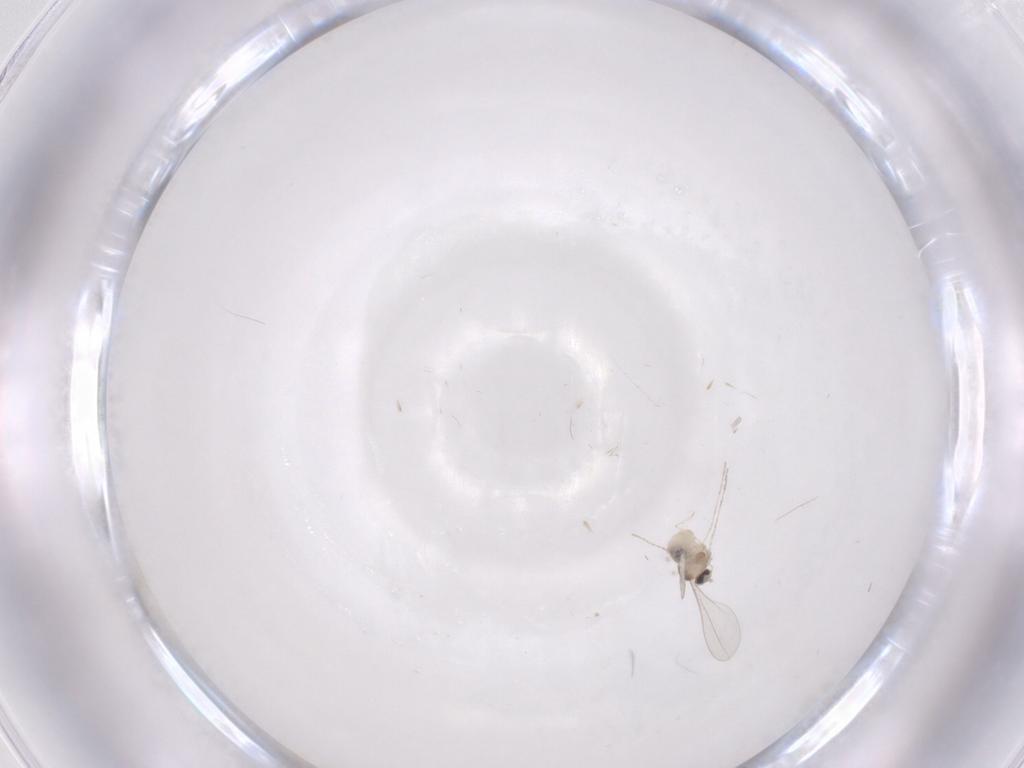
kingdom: Animalia
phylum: Arthropoda
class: Insecta
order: Diptera
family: Cecidomyiidae
